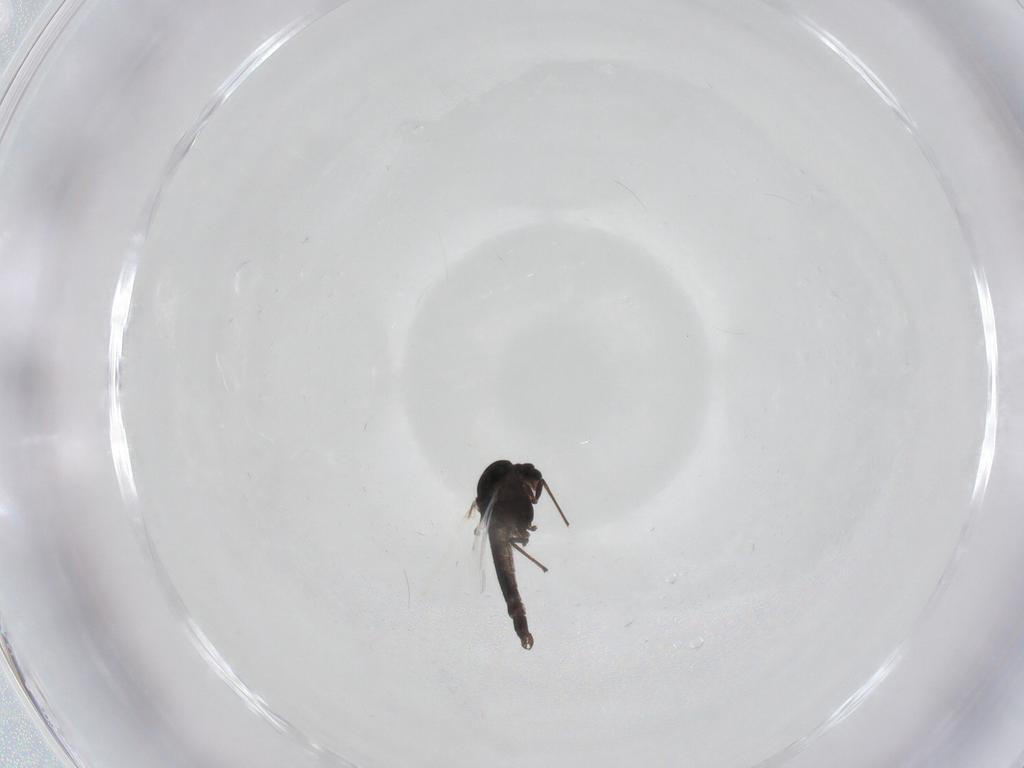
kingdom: Animalia
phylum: Arthropoda
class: Insecta
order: Diptera
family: Chironomidae
